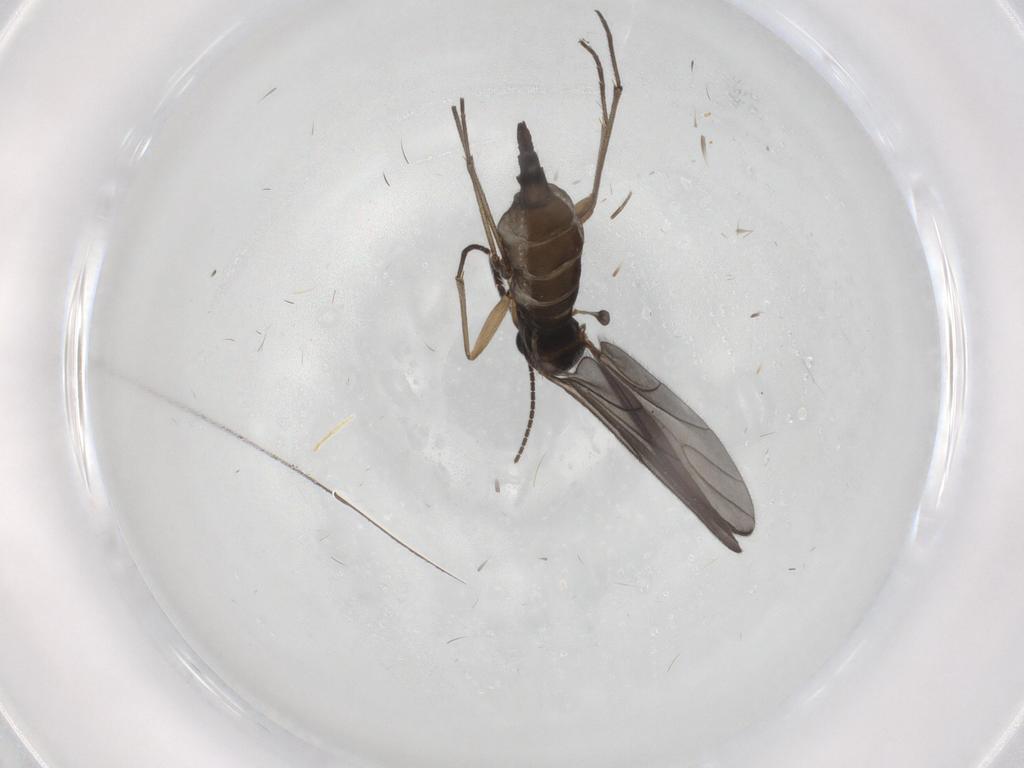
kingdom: Animalia
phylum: Arthropoda
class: Insecta
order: Diptera
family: Sciaridae
